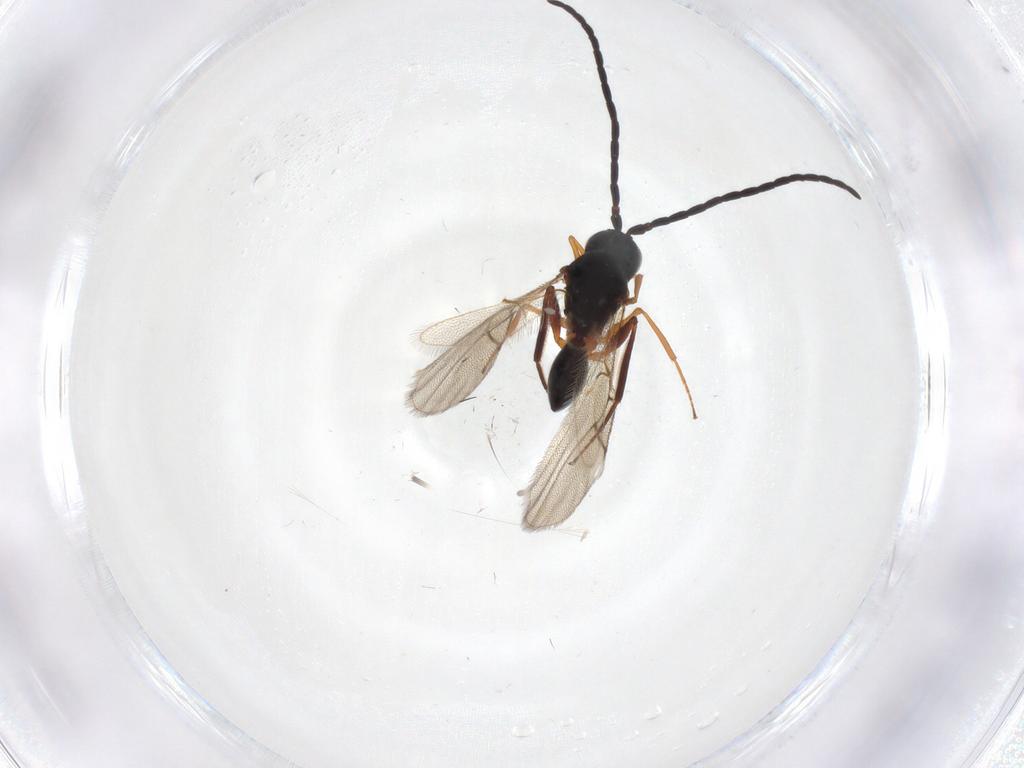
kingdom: Animalia
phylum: Arthropoda
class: Insecta
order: Hymenoptera
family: Figitidae
